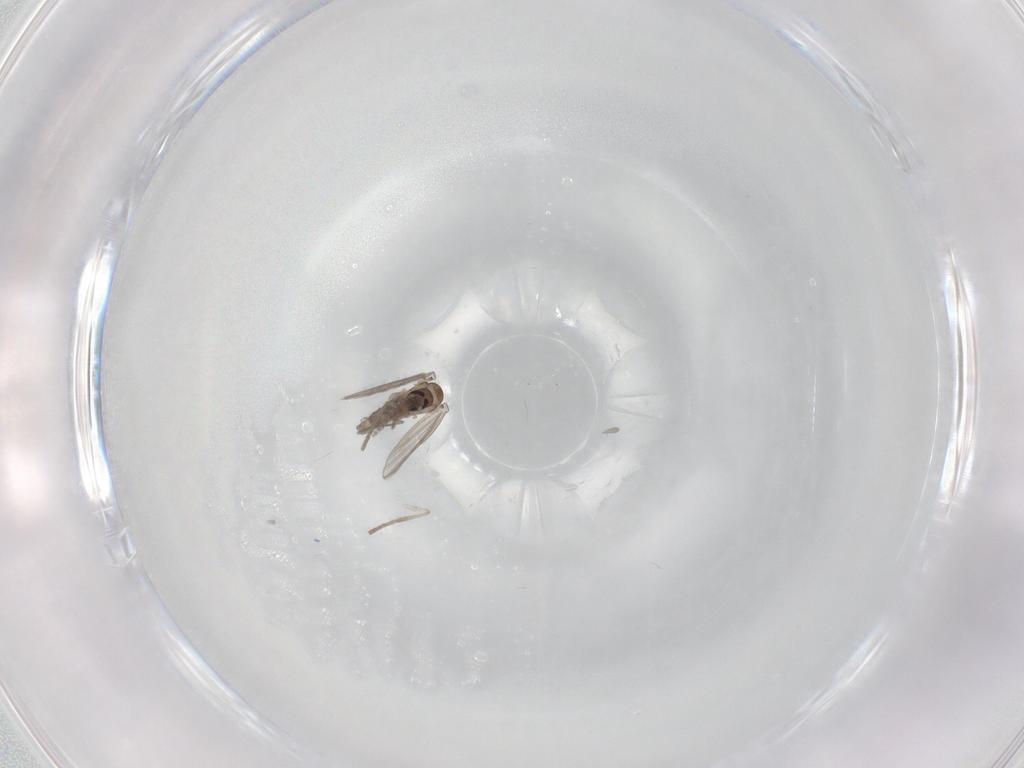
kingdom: Animalia
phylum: Arthropoda
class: Insecta
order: Diptera
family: Psychodidae
